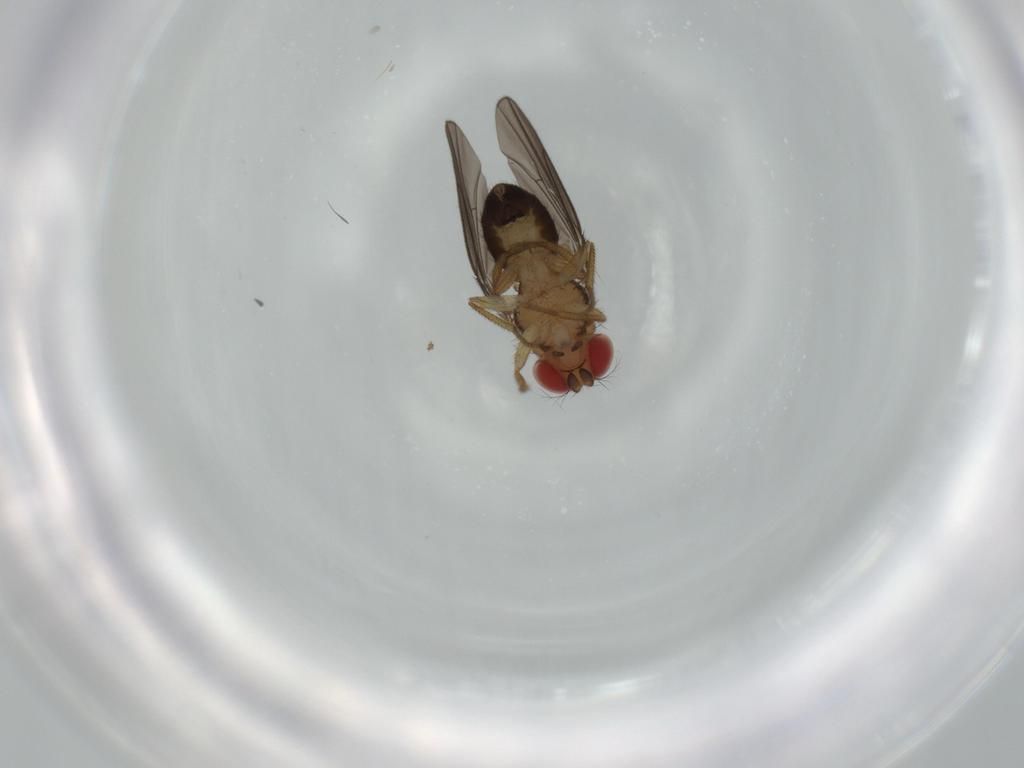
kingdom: Animalia
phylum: Arthropoda
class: Insecta
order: Diptera
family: Drosophilidae
